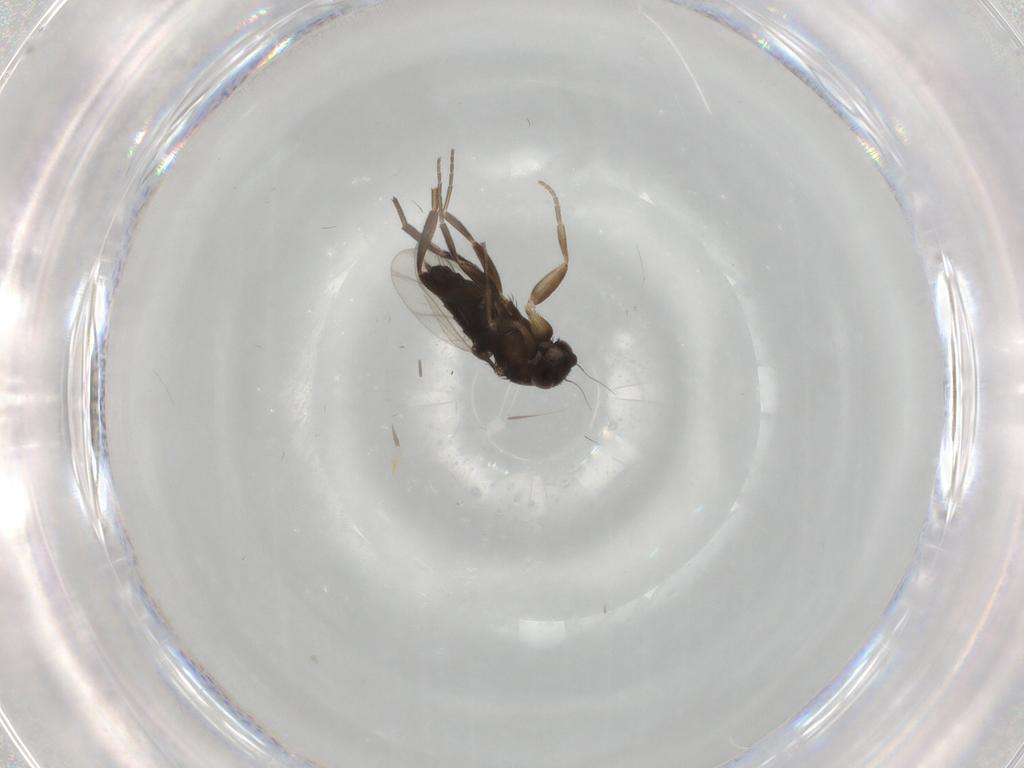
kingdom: Animalia
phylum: Arthropoda
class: Insecta
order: Diptera
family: Phoridae
